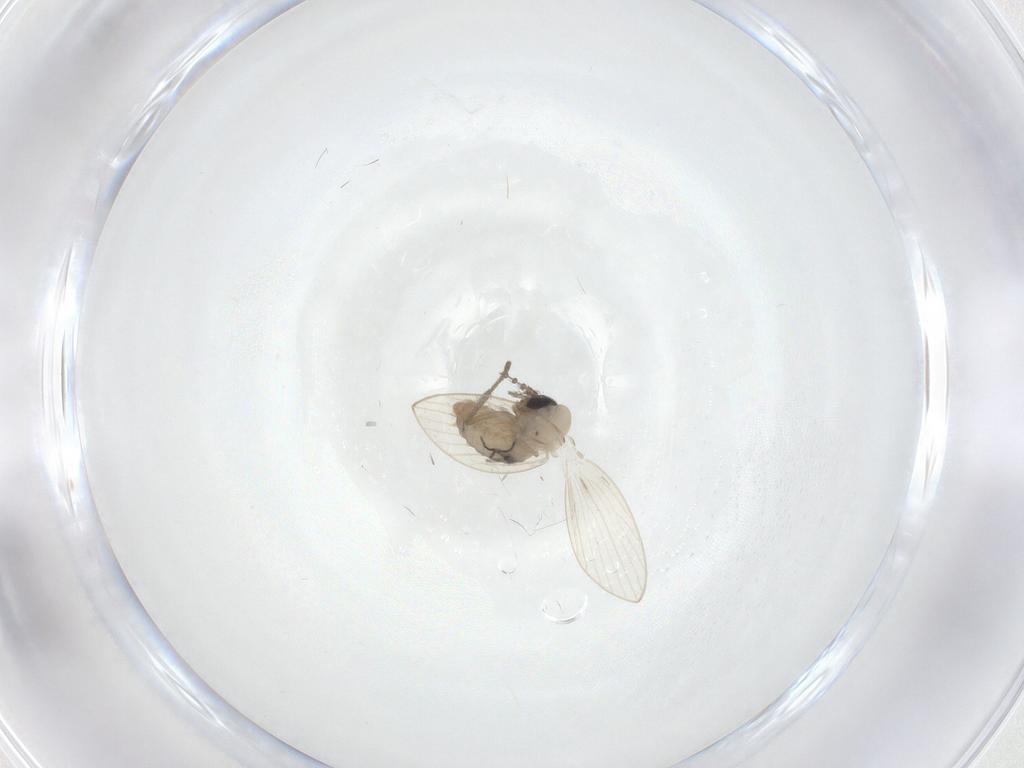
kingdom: Animalia
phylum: Arthropoda
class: Insecta
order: Diptera
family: Psychodidae
